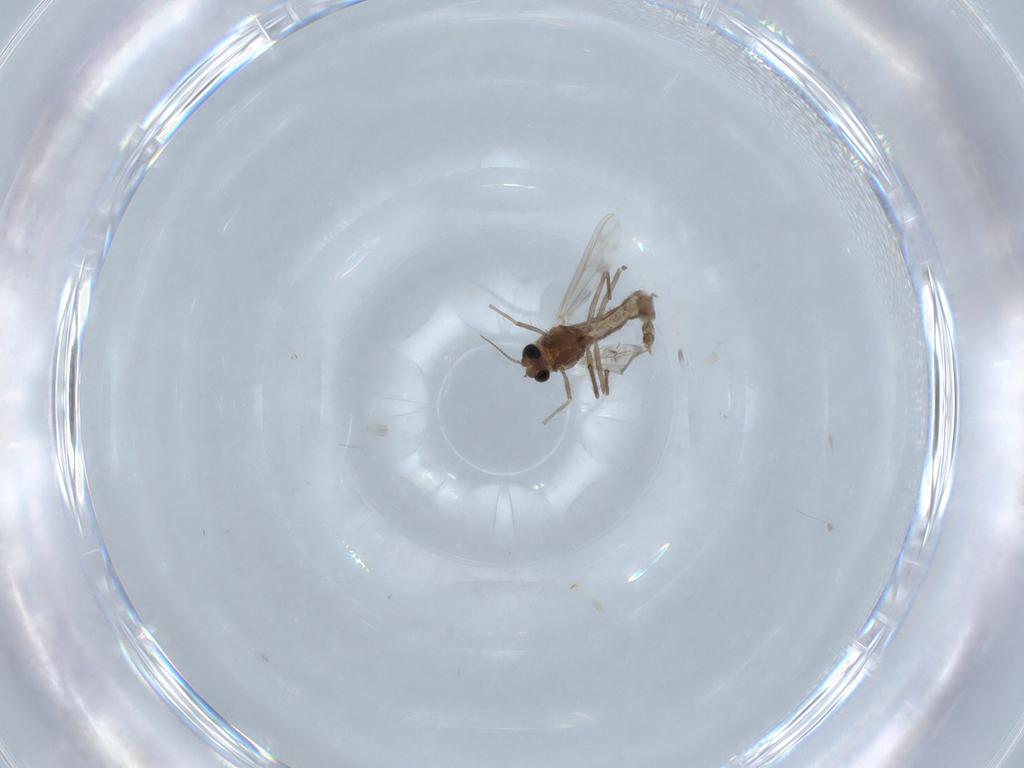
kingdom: Animalia
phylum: Arthropoda
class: Insecta
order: Diptera
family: Chironomidae
